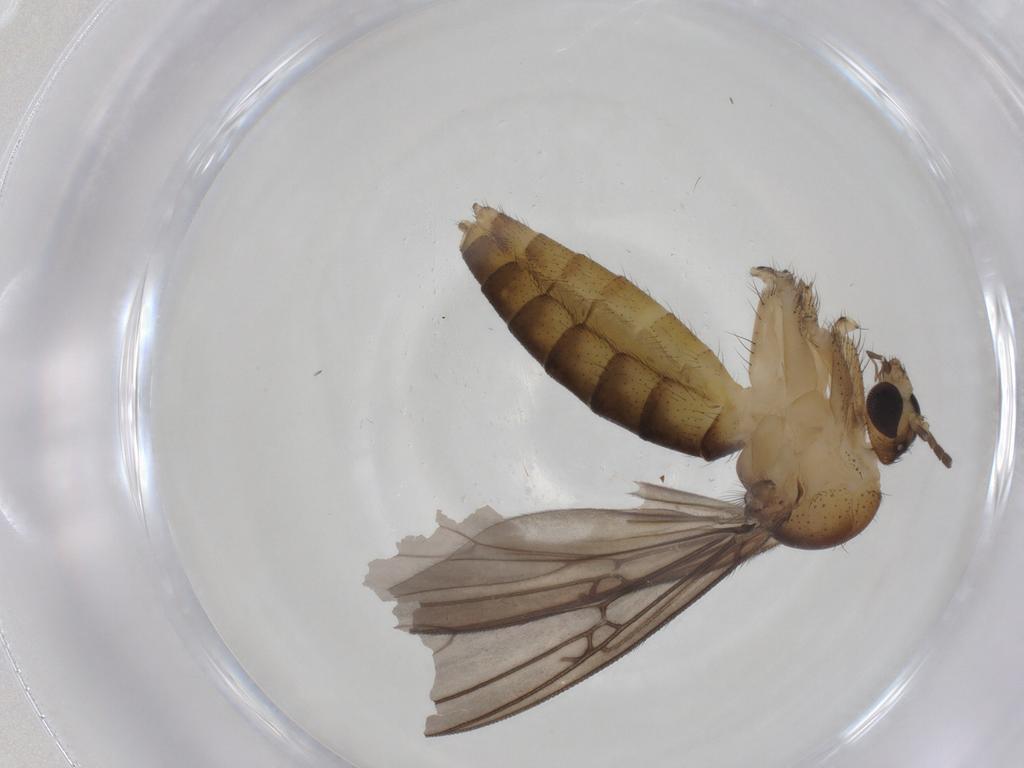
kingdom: Animalia
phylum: Arthropoda
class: Insecta
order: Diptera
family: Mycetophilidae
